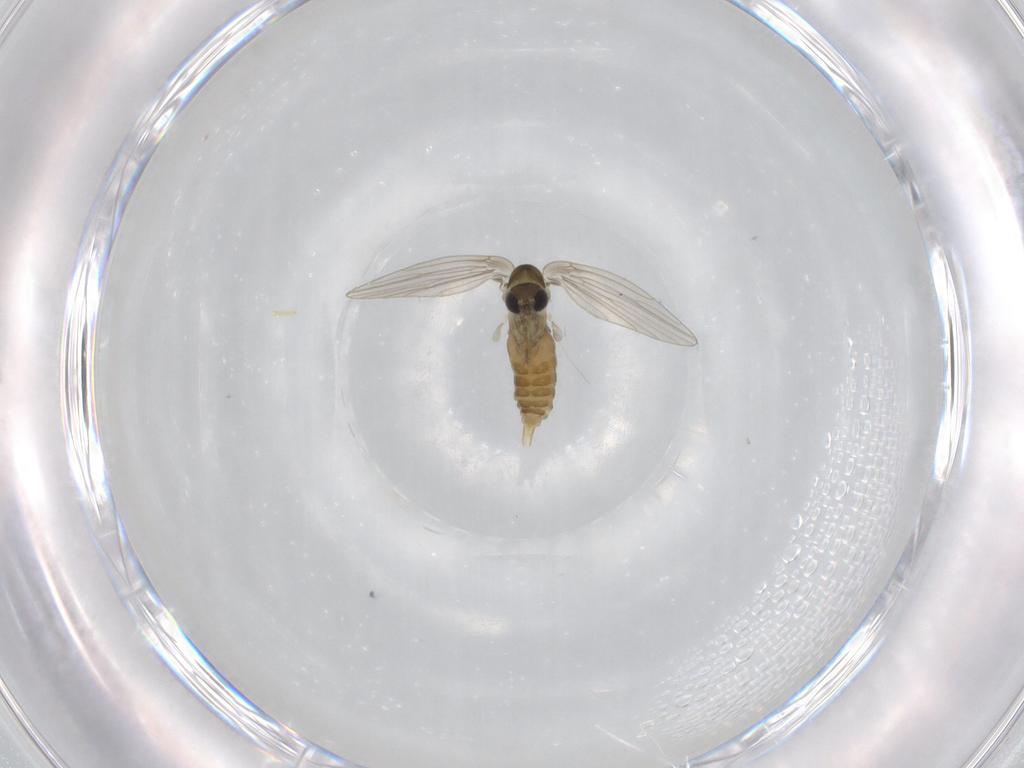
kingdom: Animalia
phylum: Arthropoda
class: Insecta
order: Diptera
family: Psychodidae
